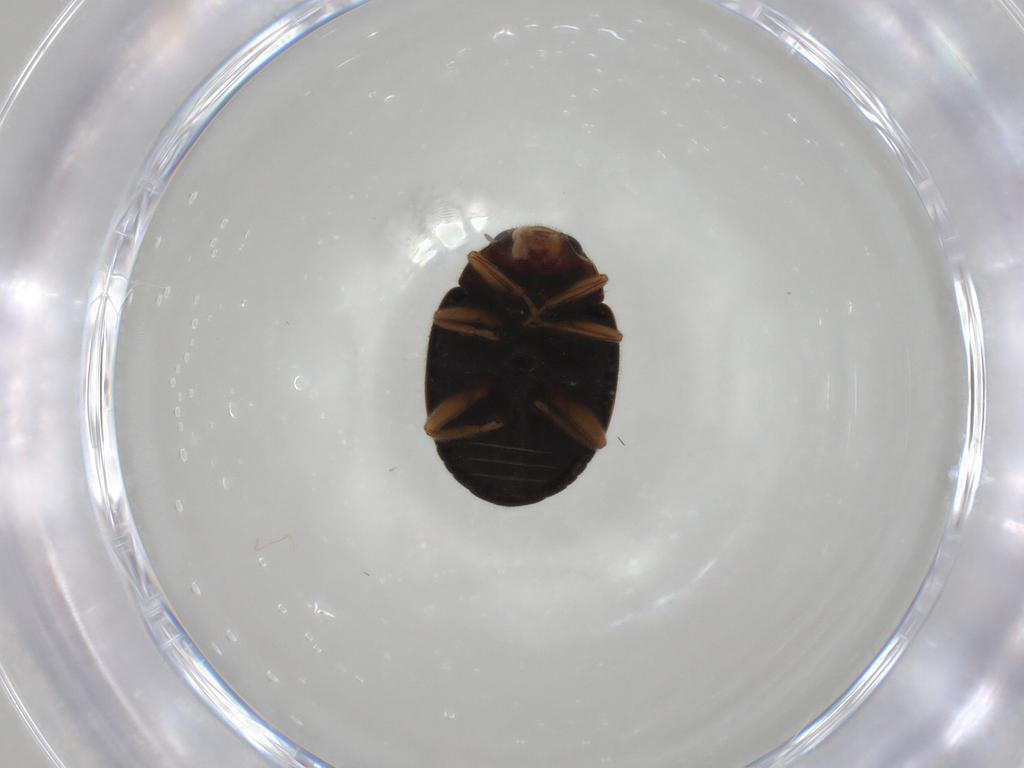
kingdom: Animalia
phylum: Arthropoda
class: Insecta
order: Coleoptera
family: Coccinellidae
